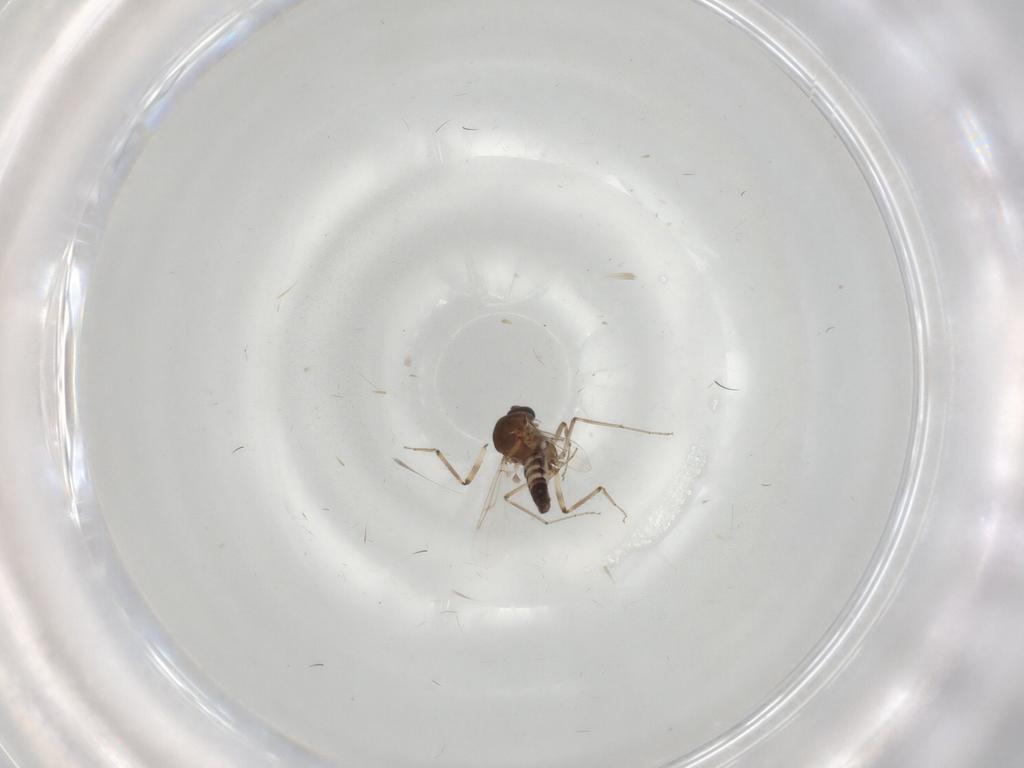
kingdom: Animalia
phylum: Arthropoda
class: Insecta
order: Diptera
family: Ceratopogonidae
